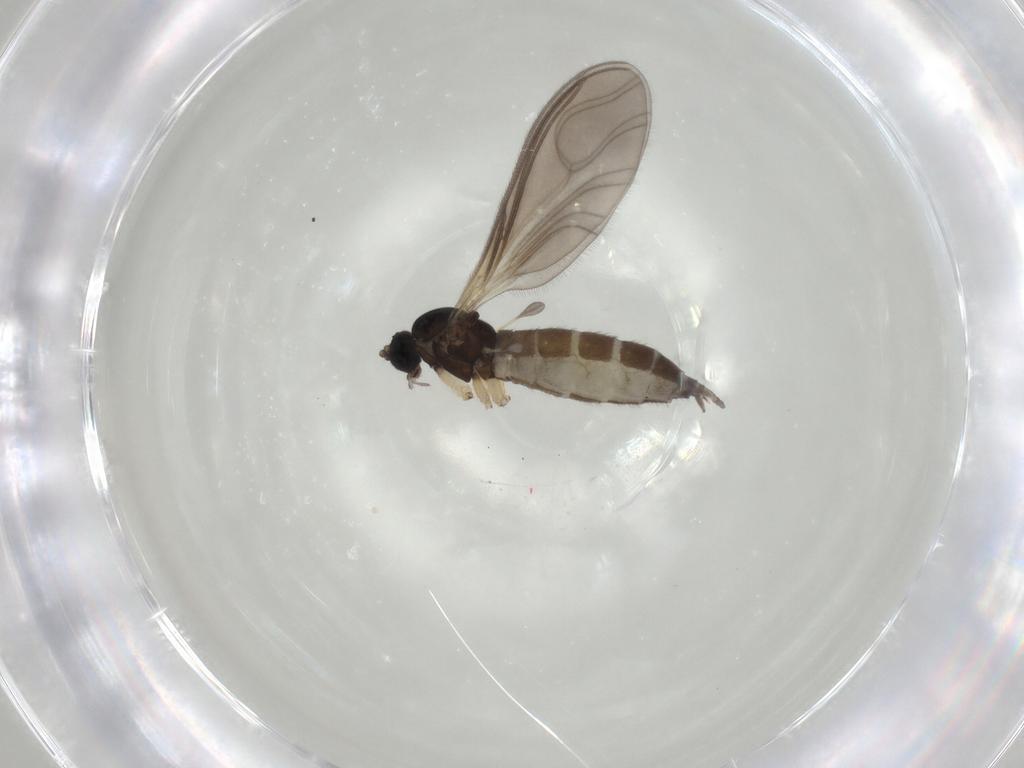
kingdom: Animalia
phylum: Arthropoda
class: Insecta
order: Diptera
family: Sciaridae
